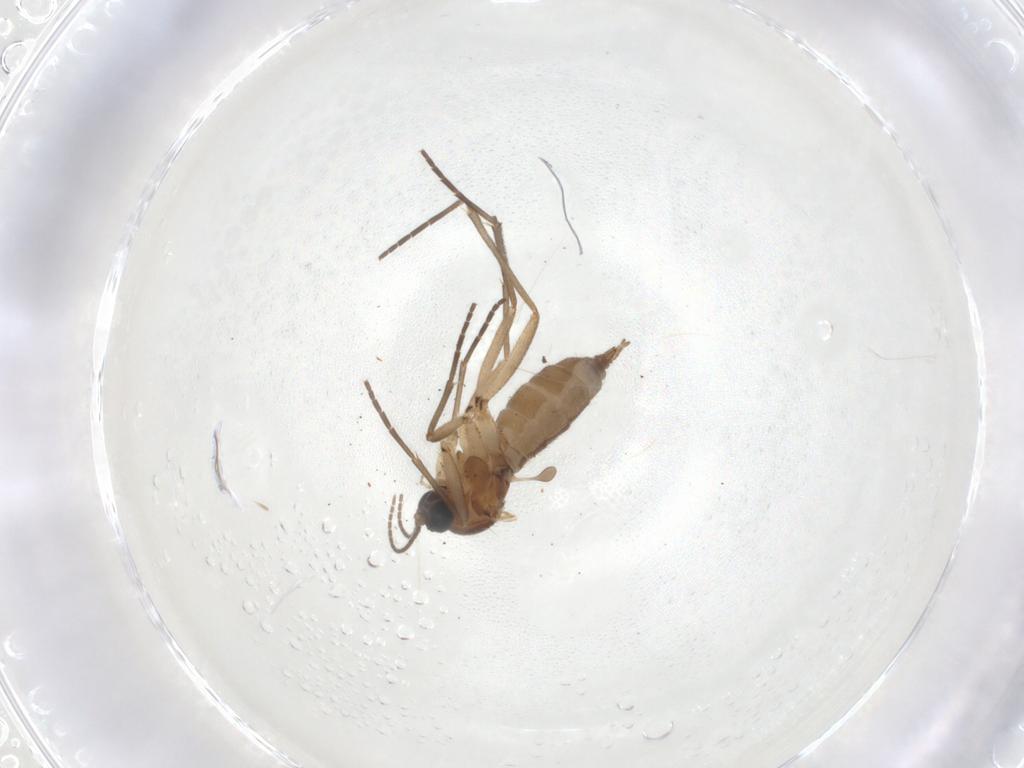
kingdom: Animalia
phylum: Arthropoda
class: Insecta
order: Diptera
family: Sciaridae
